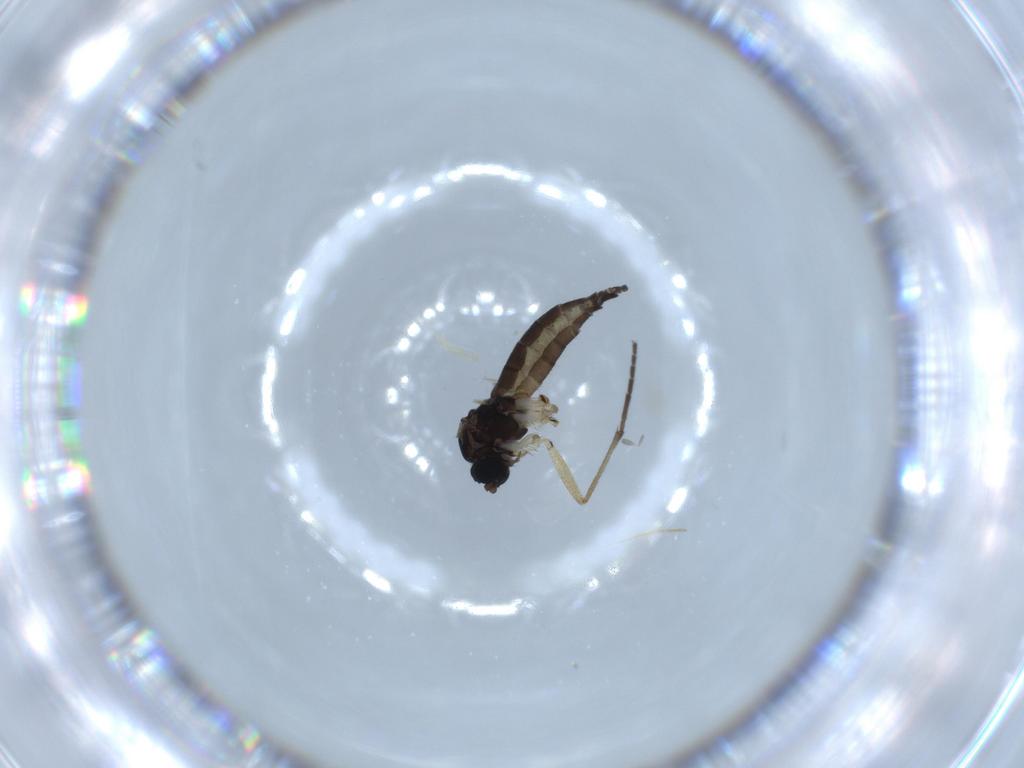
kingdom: Animalia
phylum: Arthropoda
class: Insecta
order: Diptera
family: Sciaridae
